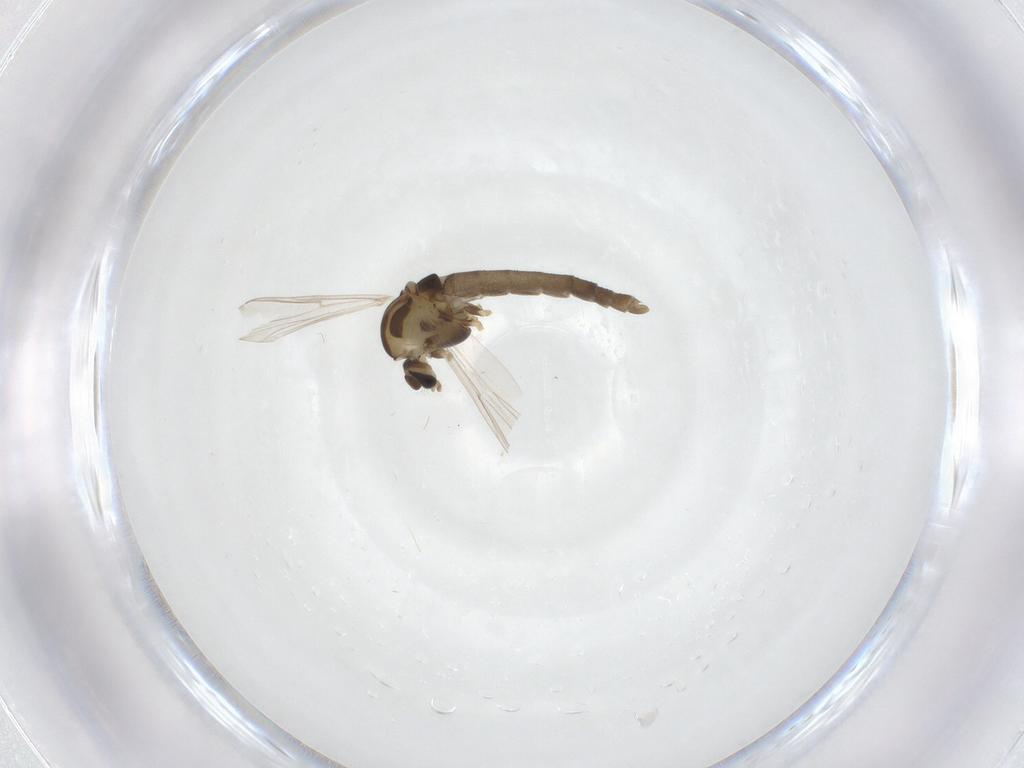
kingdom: Animalia
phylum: Arthropoda
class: Insecta
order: Diptera
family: Chironomidae
